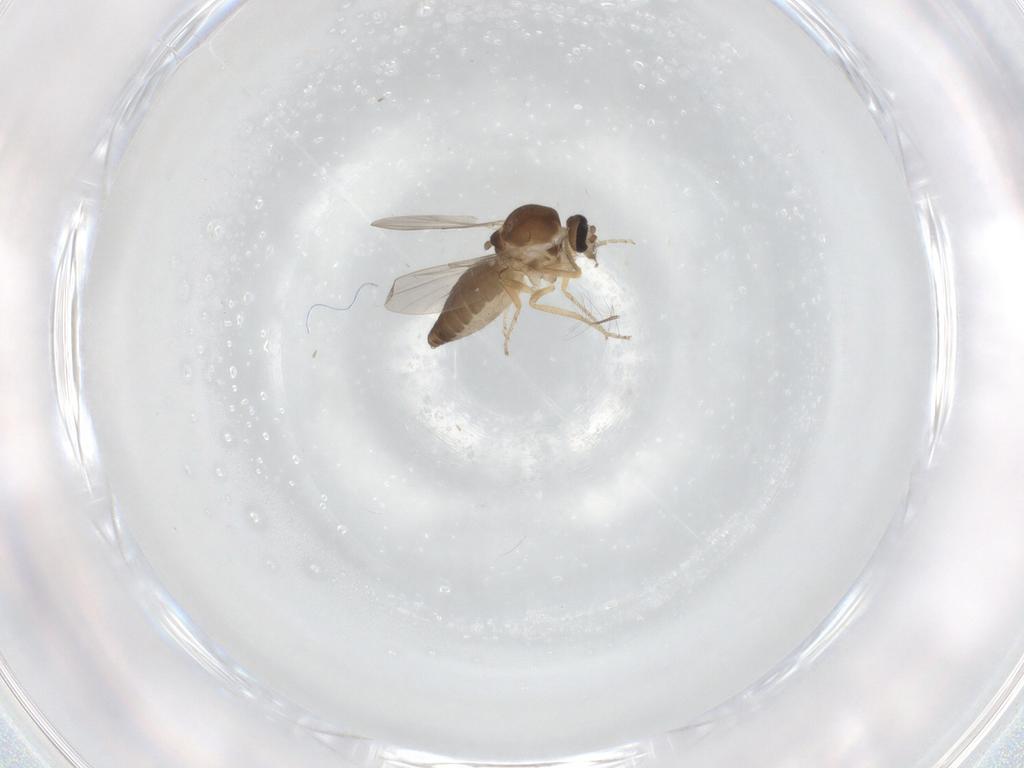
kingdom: Animalia
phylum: Arthropoda
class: Insecta
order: Diptera
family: Ceratopogonidae
